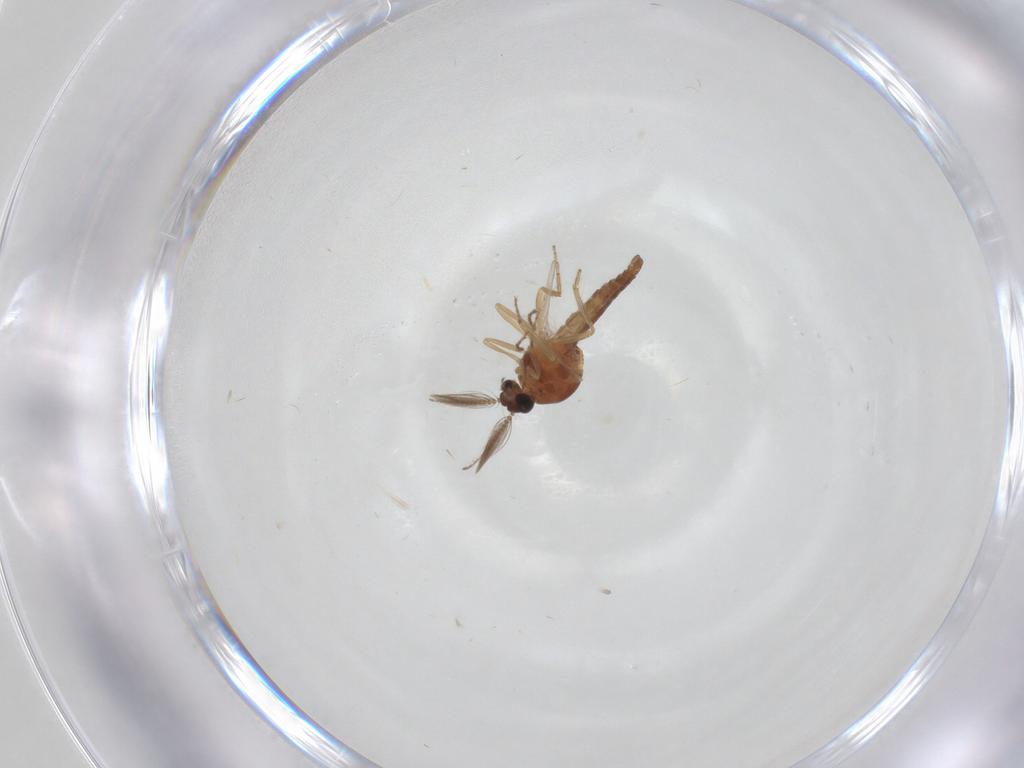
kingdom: Animalia
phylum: Arthropoda
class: Insecta
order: Diptera
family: Ceratopogonidae
